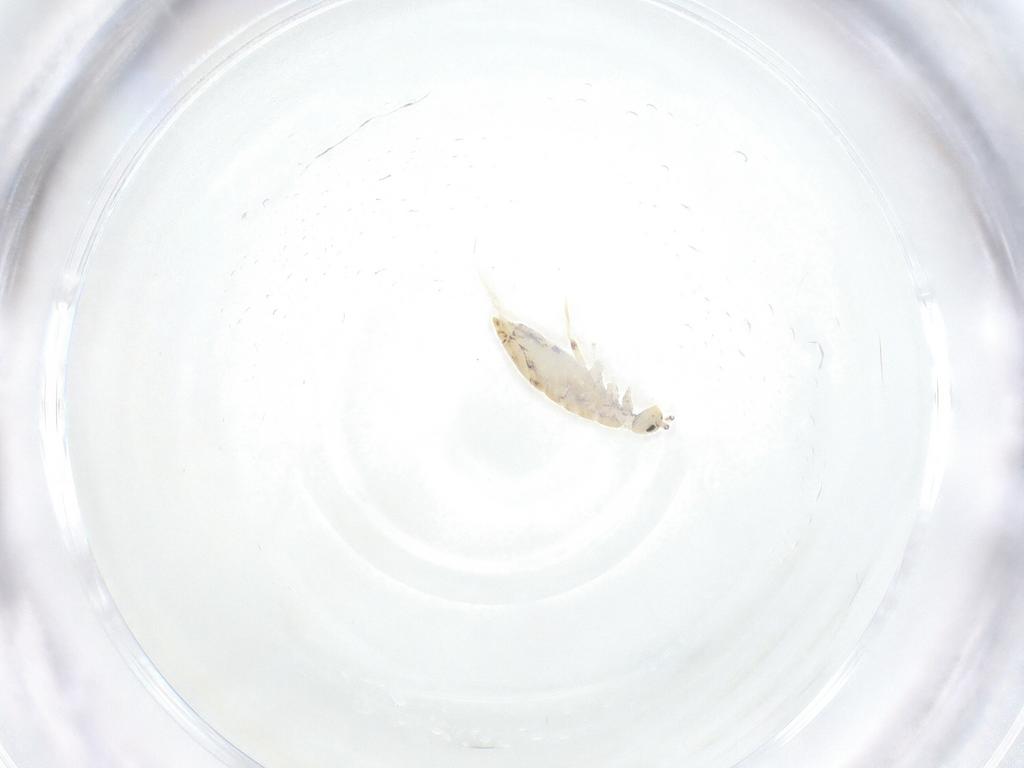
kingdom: Animalia
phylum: Arthropoda
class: Collembola
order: Entomobryomorpha
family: Entomobryidae
